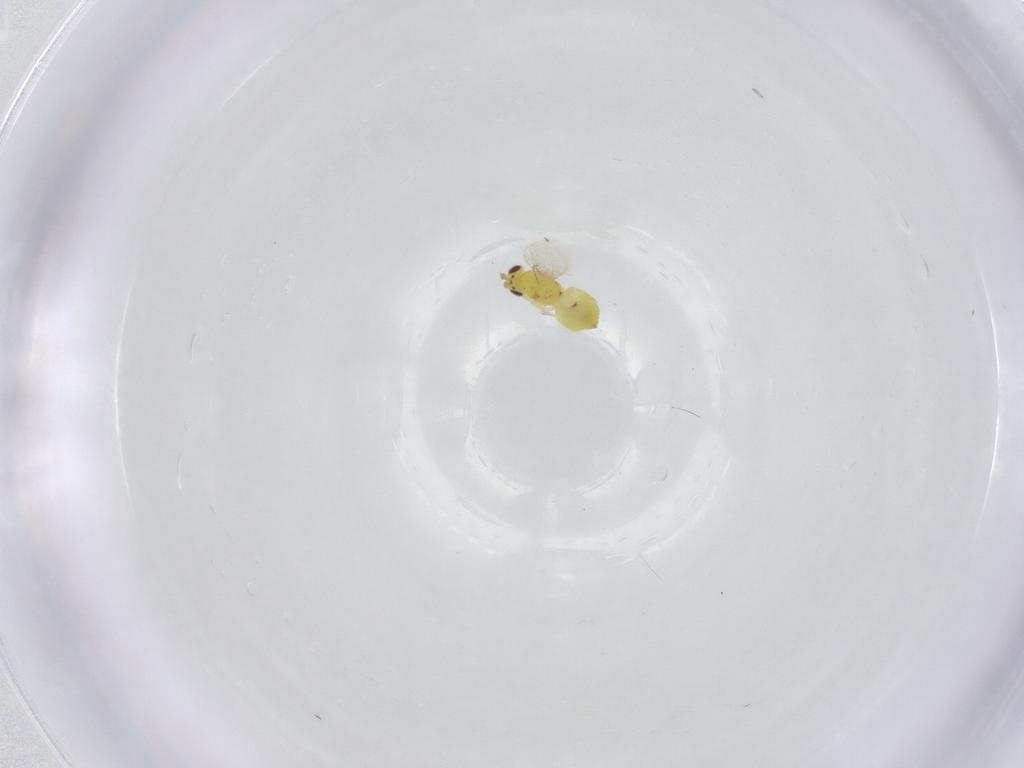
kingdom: Animalia
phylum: Arthropoda
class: Insecta
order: Hymenoptera
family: Eulophidae
